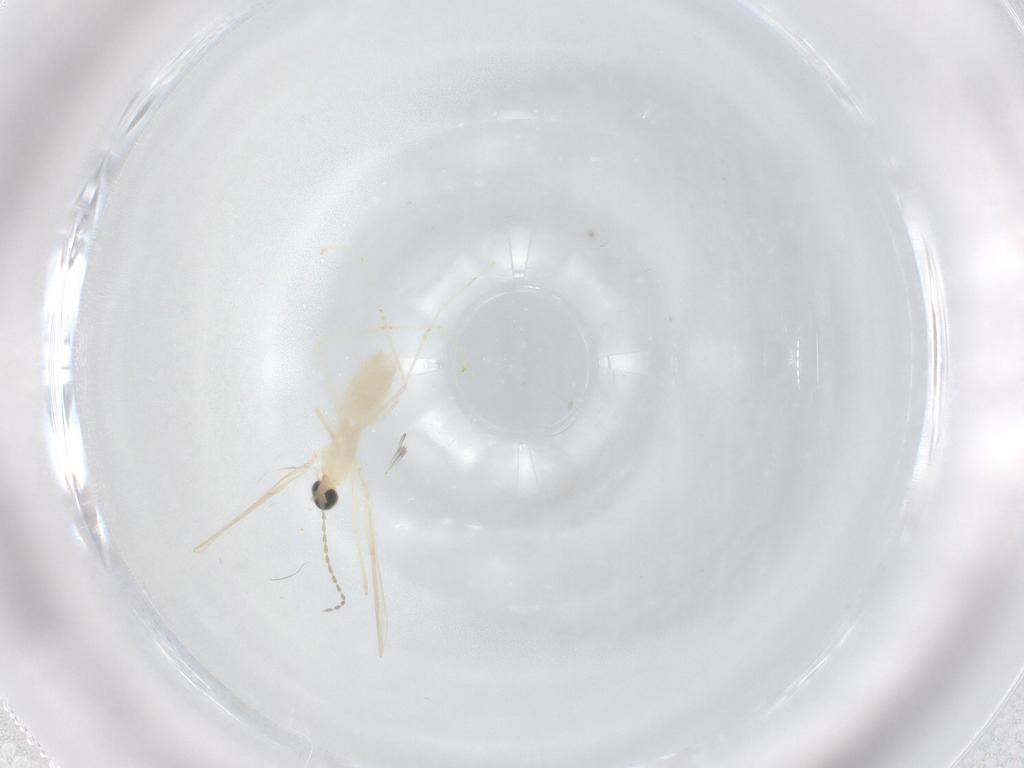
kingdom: Animalia
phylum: Arthropoda
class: Insecta
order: Diptera
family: Cecidomyiidae
